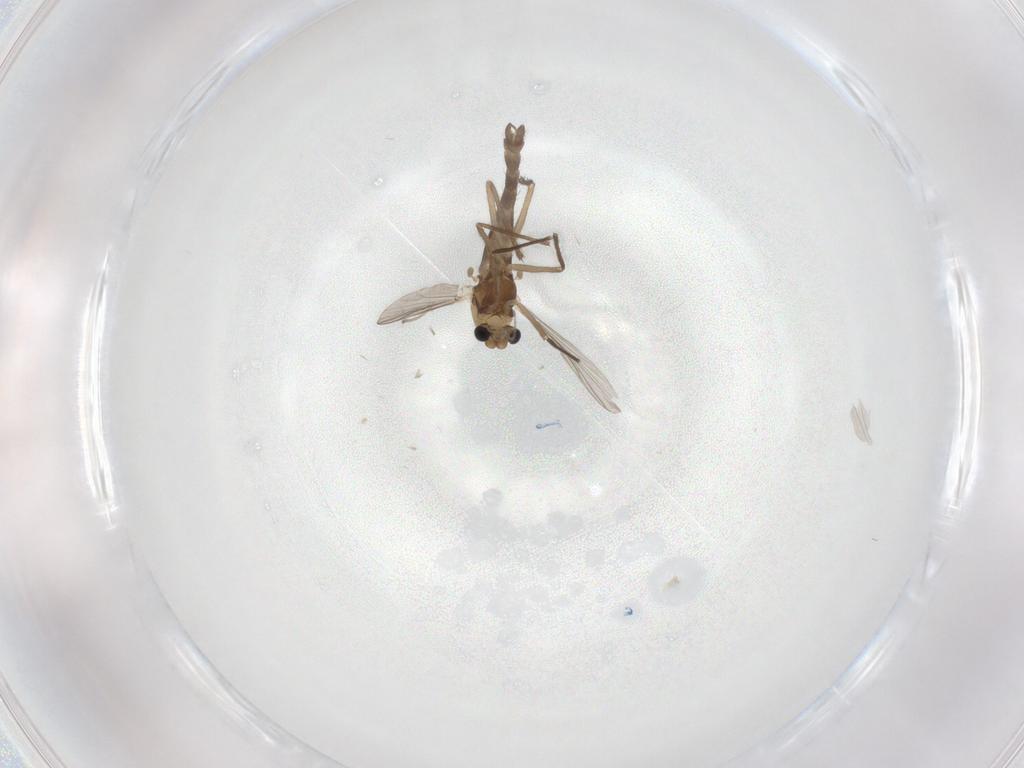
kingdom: Animalia
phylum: Arthropoda
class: Insecta
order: Diptera
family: Chironomidae
